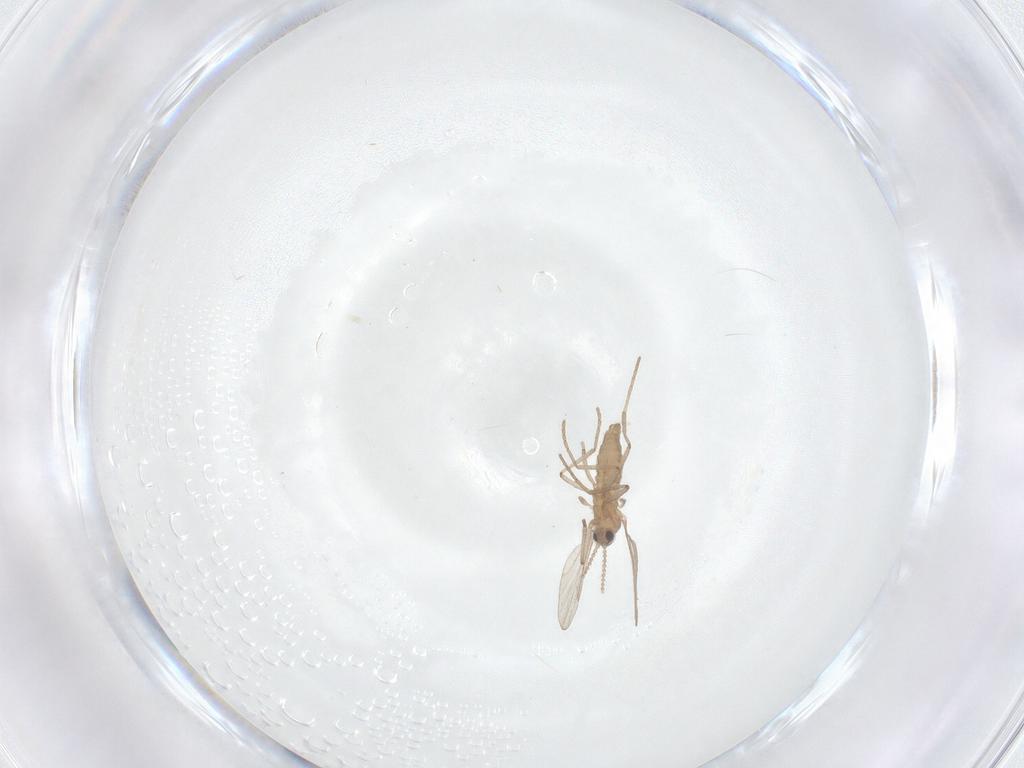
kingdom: Animalia
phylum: Arthropoda
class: Insecta
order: Diptera
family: Cecidomyiidae
